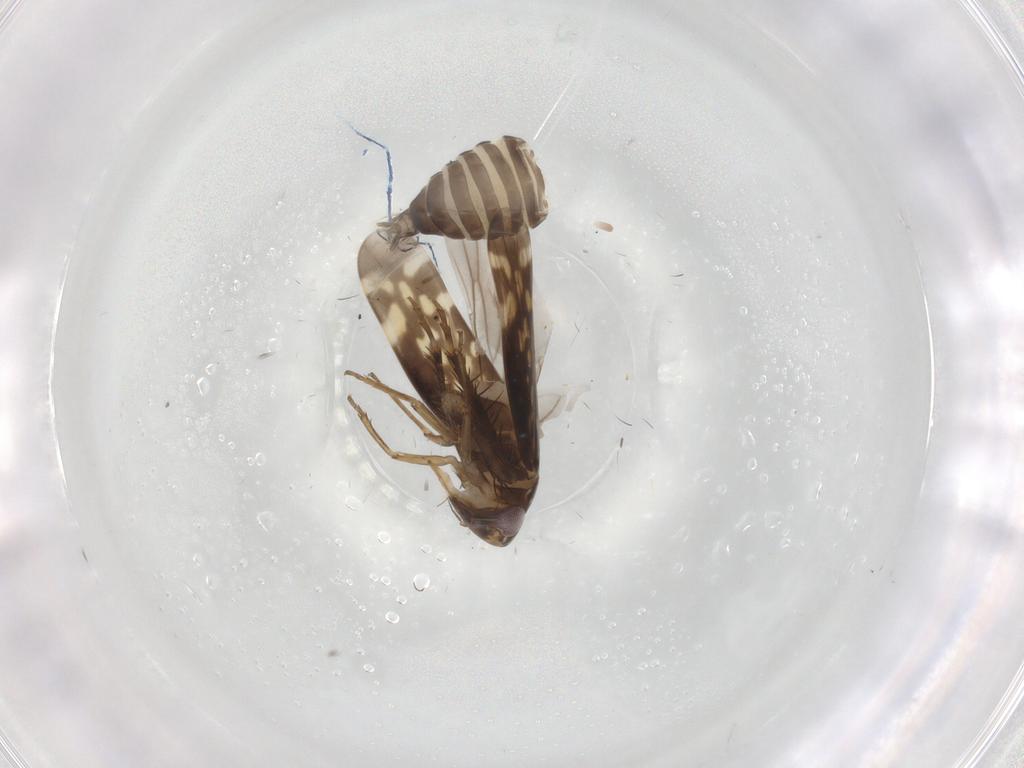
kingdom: Animalia
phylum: Arthropoda
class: Insecta
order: Hemiptera
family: Cicadellidae
